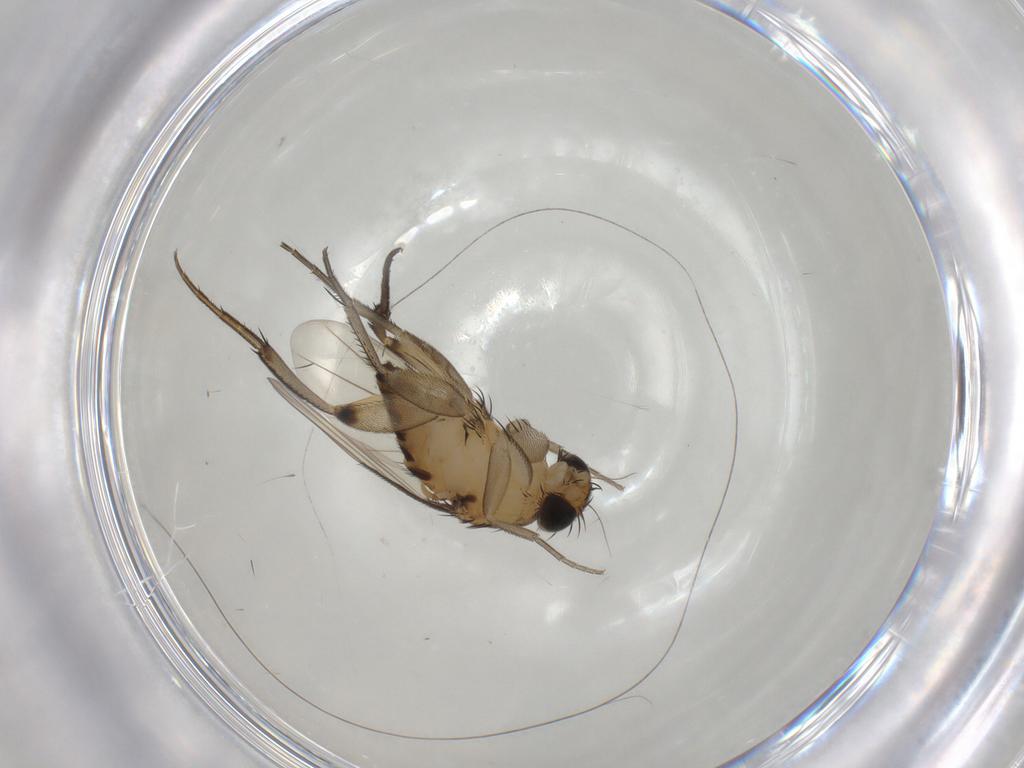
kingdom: Animalia
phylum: Arthropoda
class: Insecta
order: Diptera
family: Phoridae
